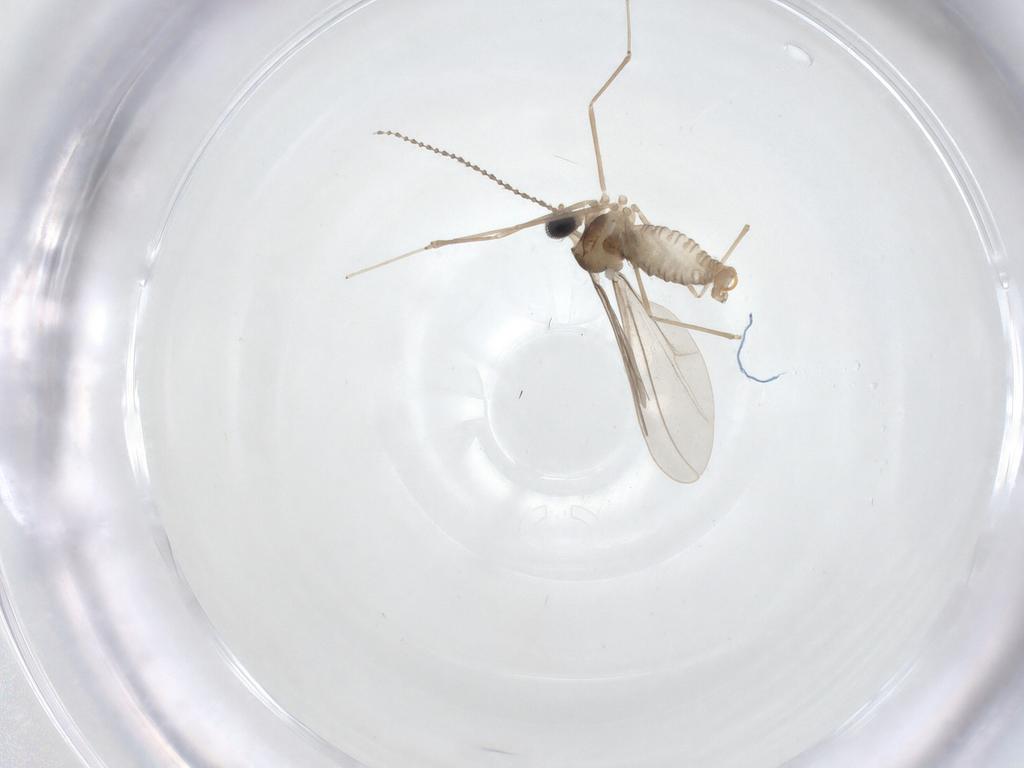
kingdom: Animalia
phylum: Arthropoda
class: Insecta
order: Diptera
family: Cecidomyiidae
